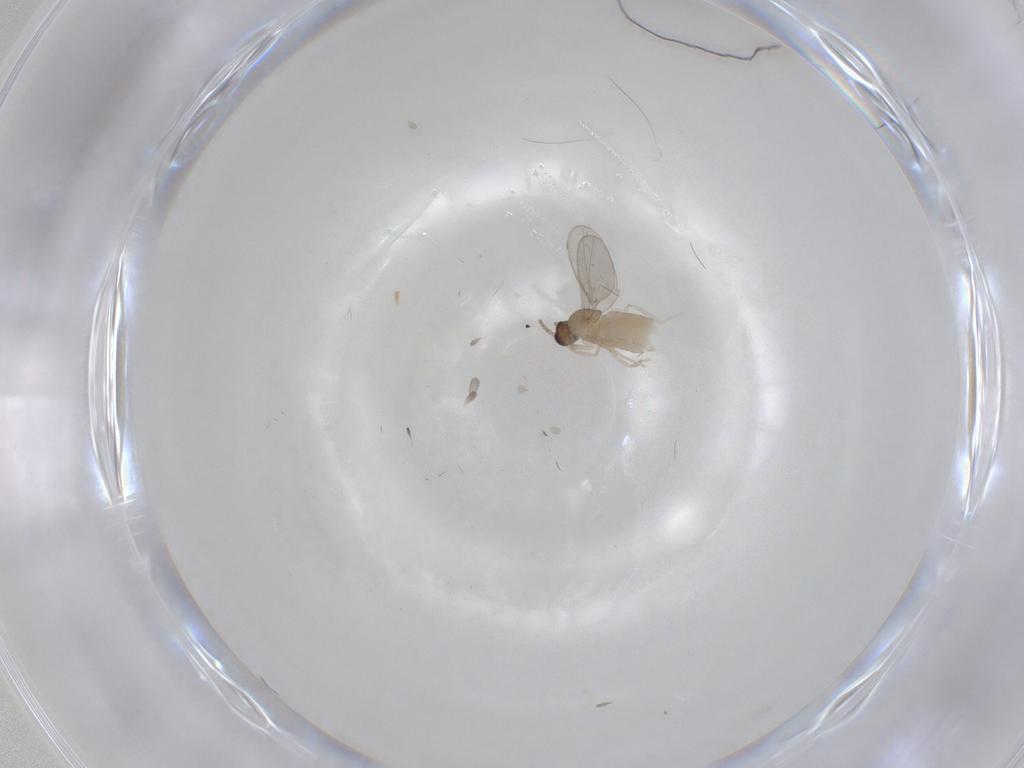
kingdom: Animalia
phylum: Arthropoda
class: Insecta
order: Diptera
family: Cecidomyiidae
